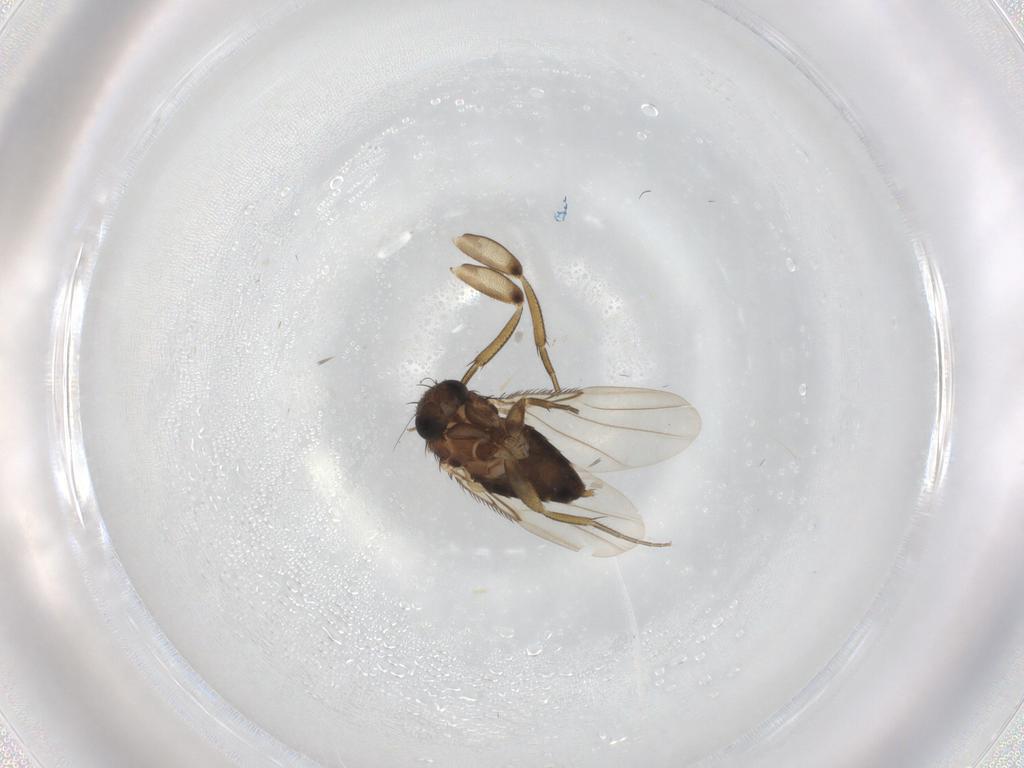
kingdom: Animalia
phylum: Arthropoda
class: Insecta
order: Diptera
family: Phoridae
